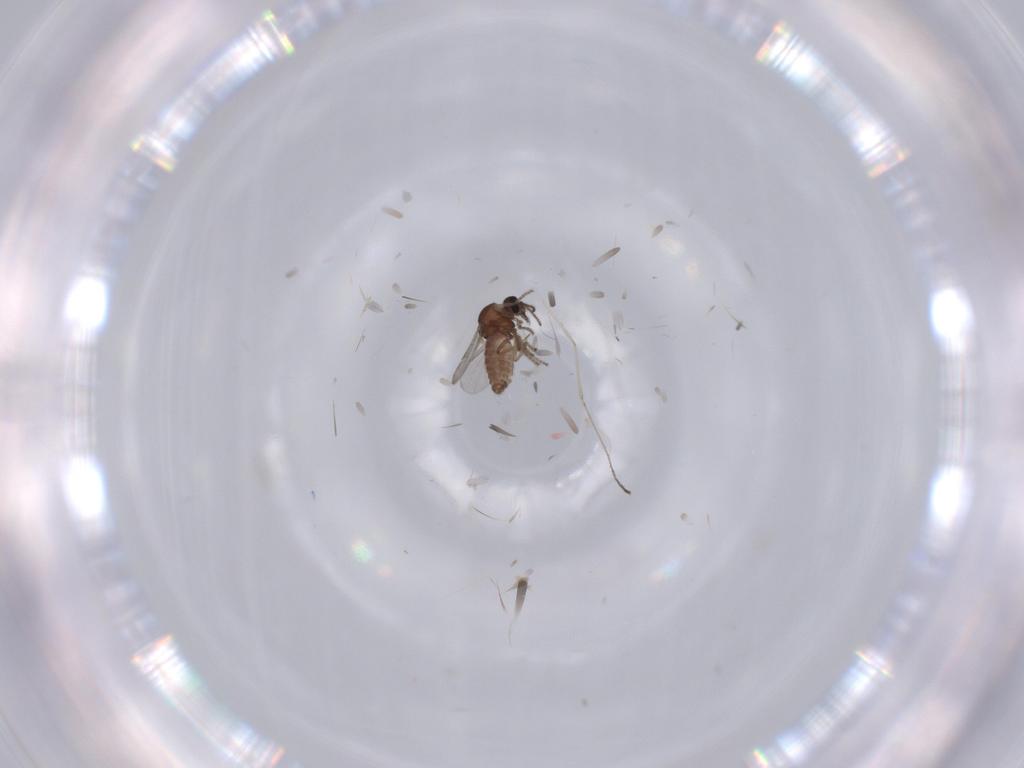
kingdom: Animalia
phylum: Arthropoda
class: Insecta
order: Diptera
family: Ceratopogonidae
